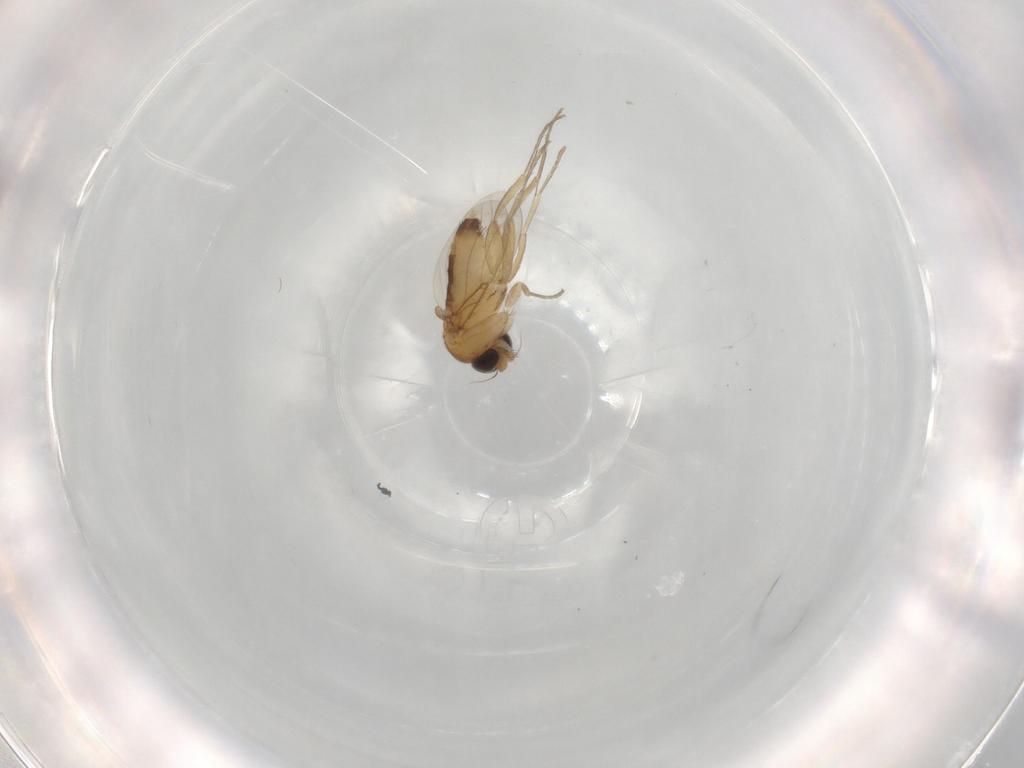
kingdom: Animalia
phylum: Arthropoda
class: Insecta
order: Diptera
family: Phoridae
